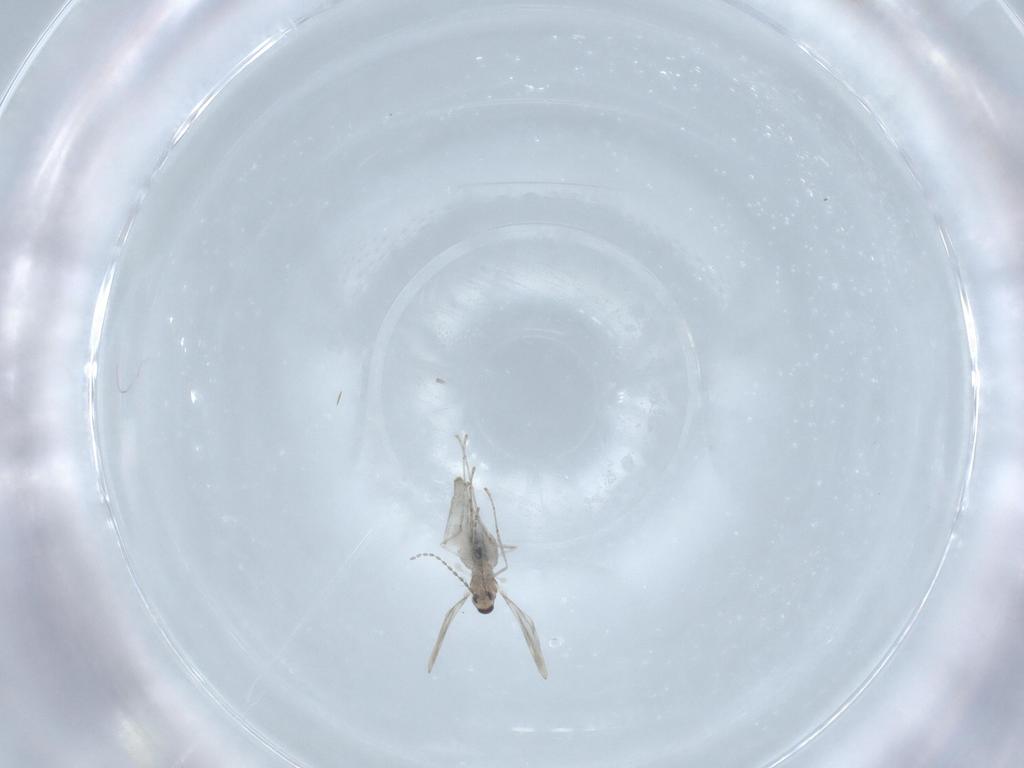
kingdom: Animalia
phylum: Arthropoda
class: Insecta
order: Diptera
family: Cecidomyiidae
